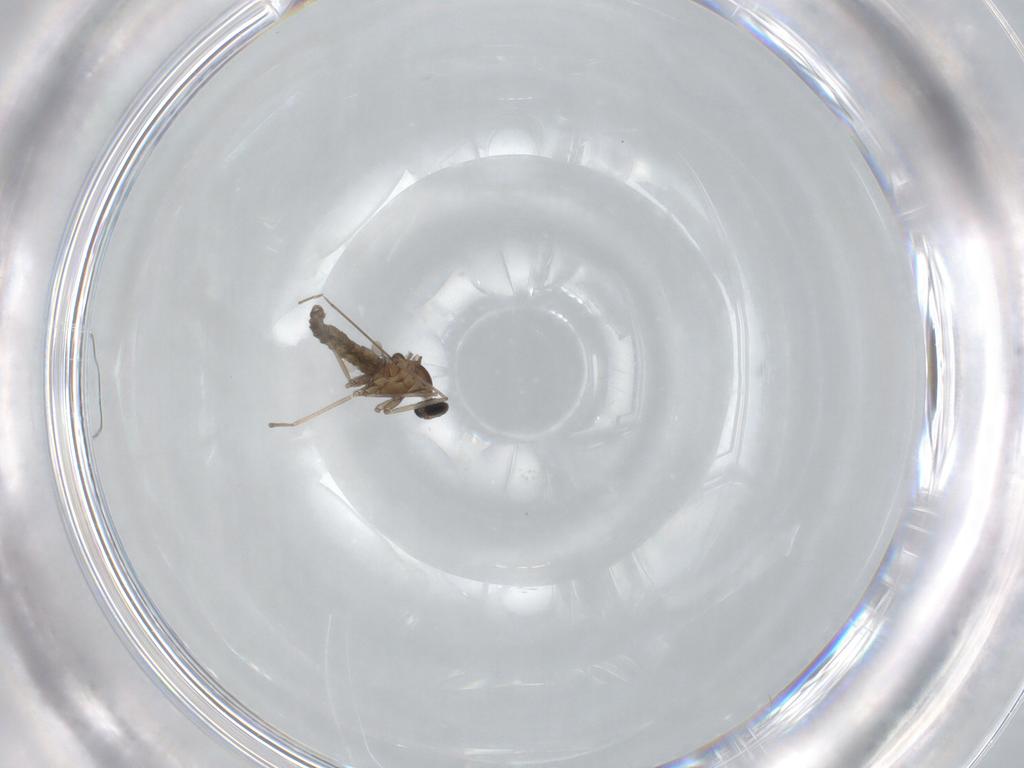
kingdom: Animalia
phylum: Arthropoda
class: Insecta
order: Diptera
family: Cecidomyiidae
